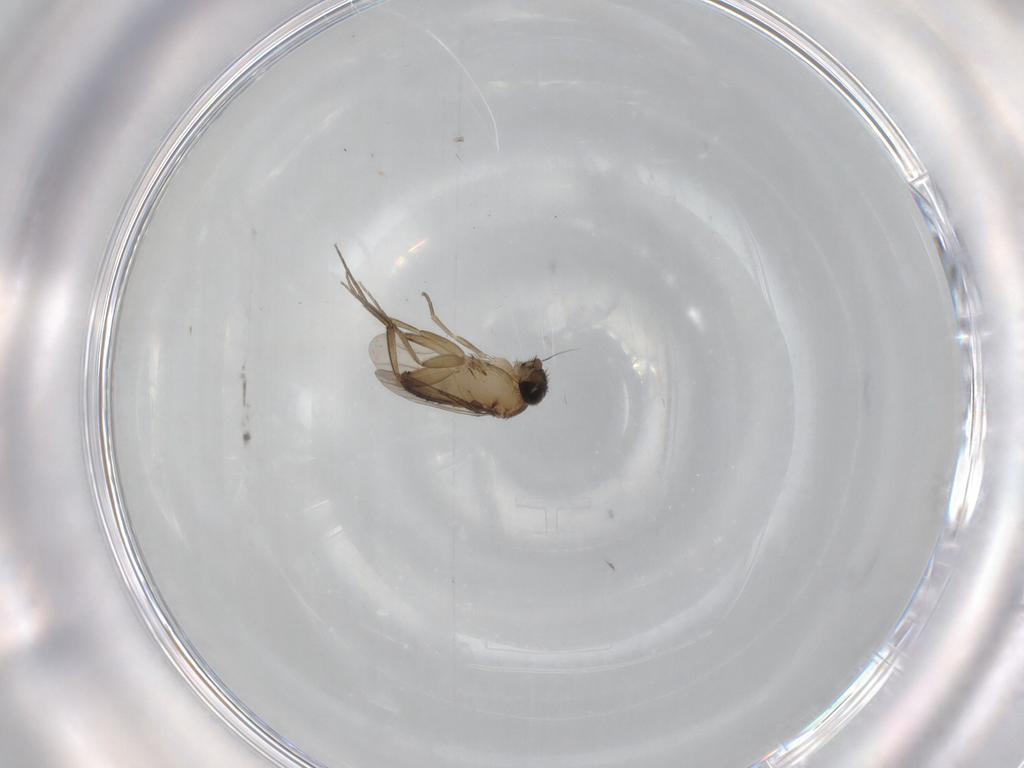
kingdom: Animalia
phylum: Arthropoda
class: Insecta
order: Diptera
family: Phoridae
